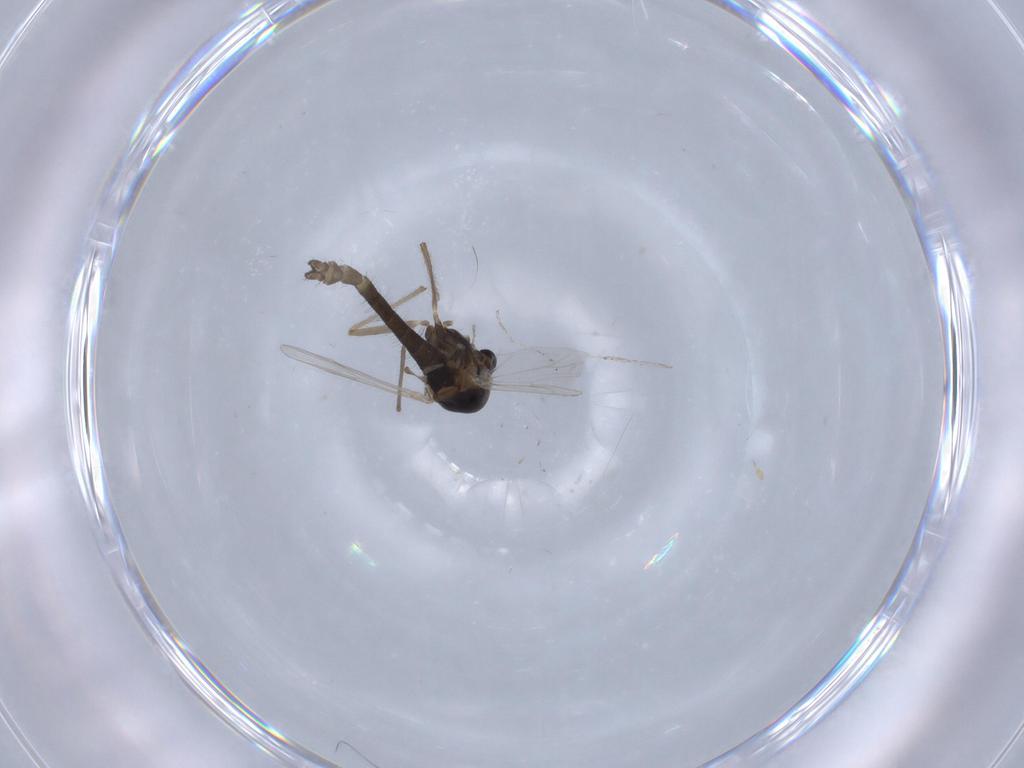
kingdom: Animalia
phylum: Arthropoda
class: Insecta
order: Diptera
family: Chironomidae
